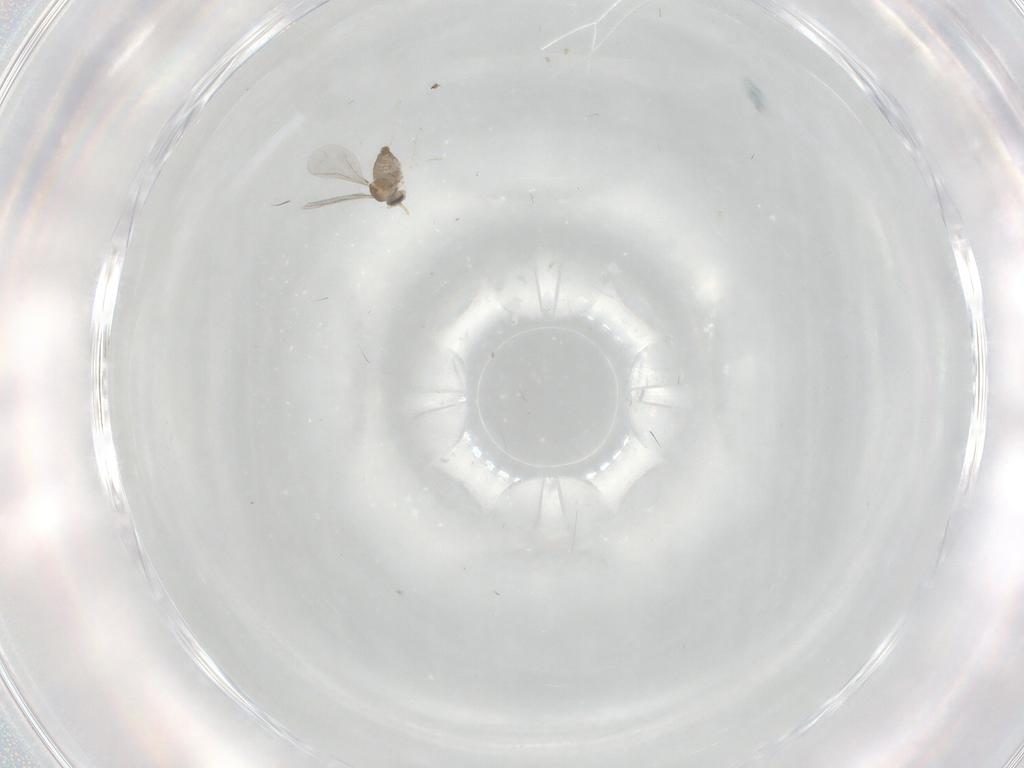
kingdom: Animalia
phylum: Arthropoda
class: Insecta
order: Diptera
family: Cecidomyiidae
